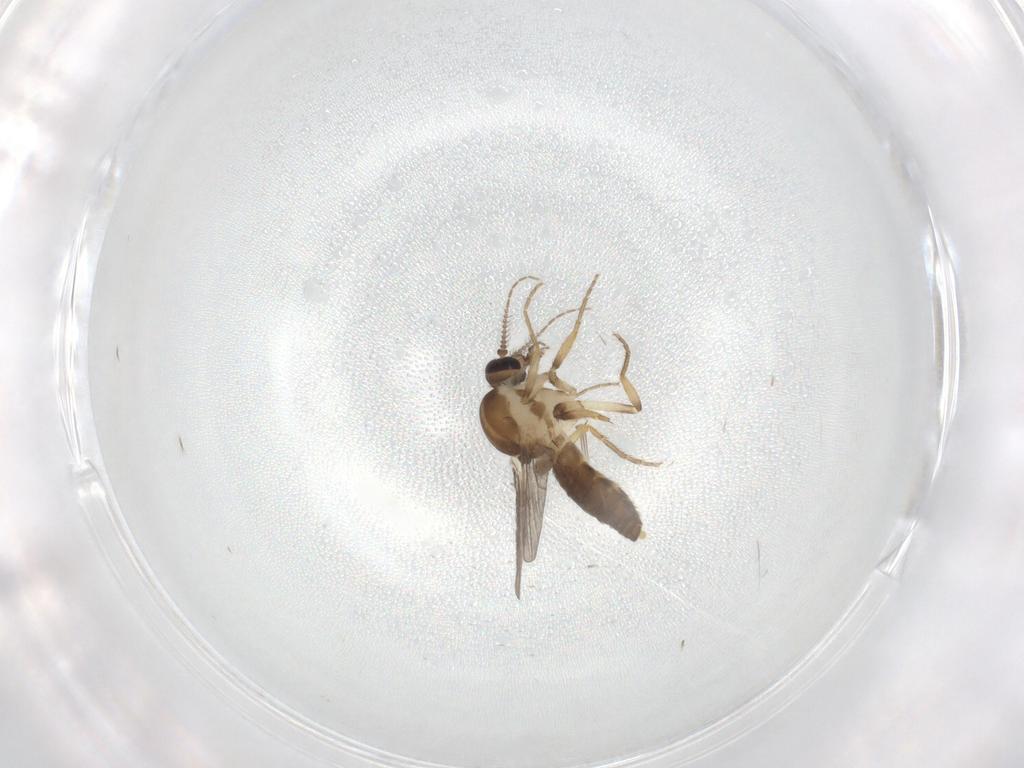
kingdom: Animalia
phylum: Arthropoda
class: Insecta
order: Diptera
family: Ceratopogonidae
